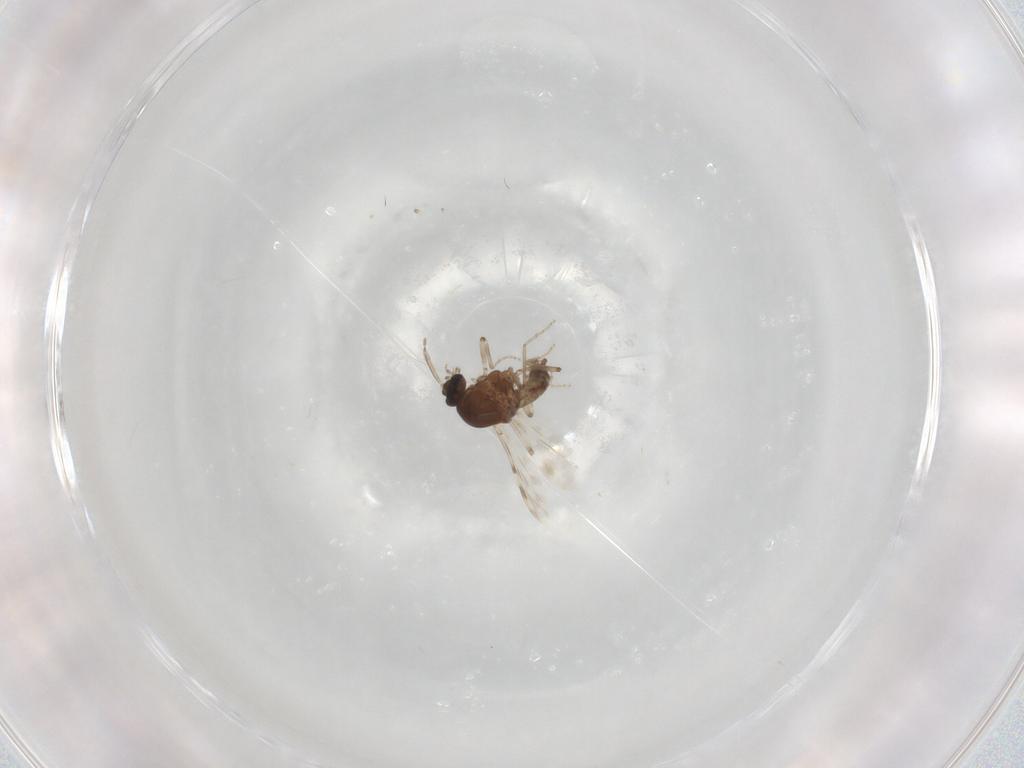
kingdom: Animalia
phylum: Arthropoda
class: Insecta
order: Diptera
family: Ceratopogonidae
